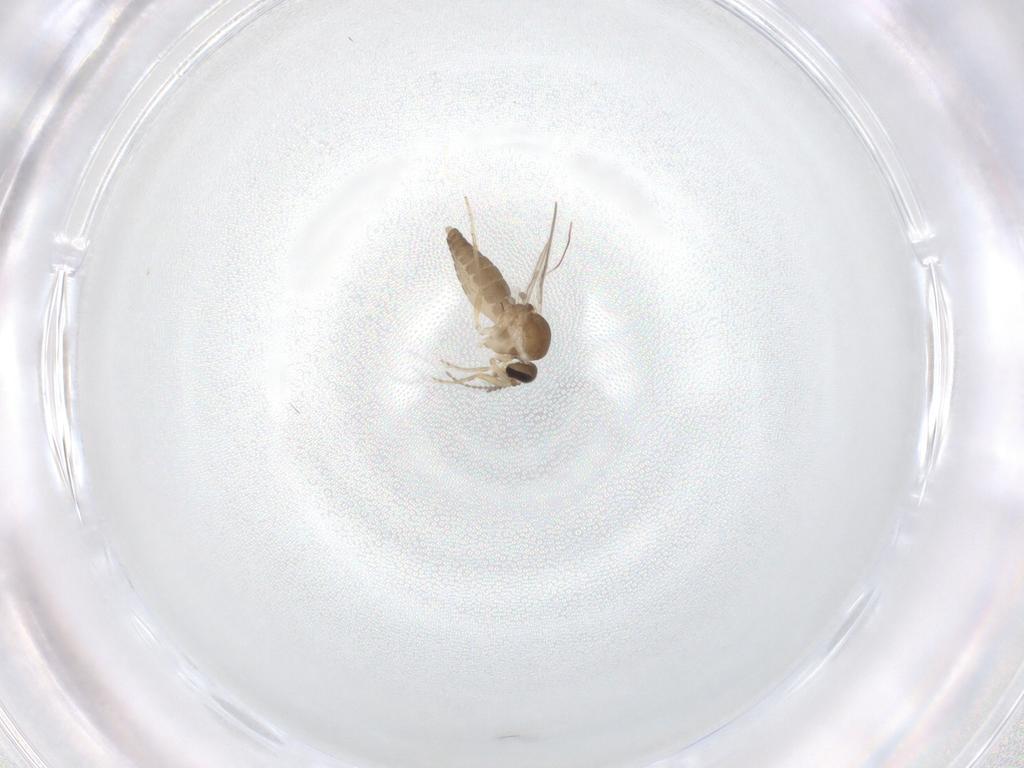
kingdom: Animalia
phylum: Arthropoda
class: Insecta
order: Diptera
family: Ceratopogonidae
